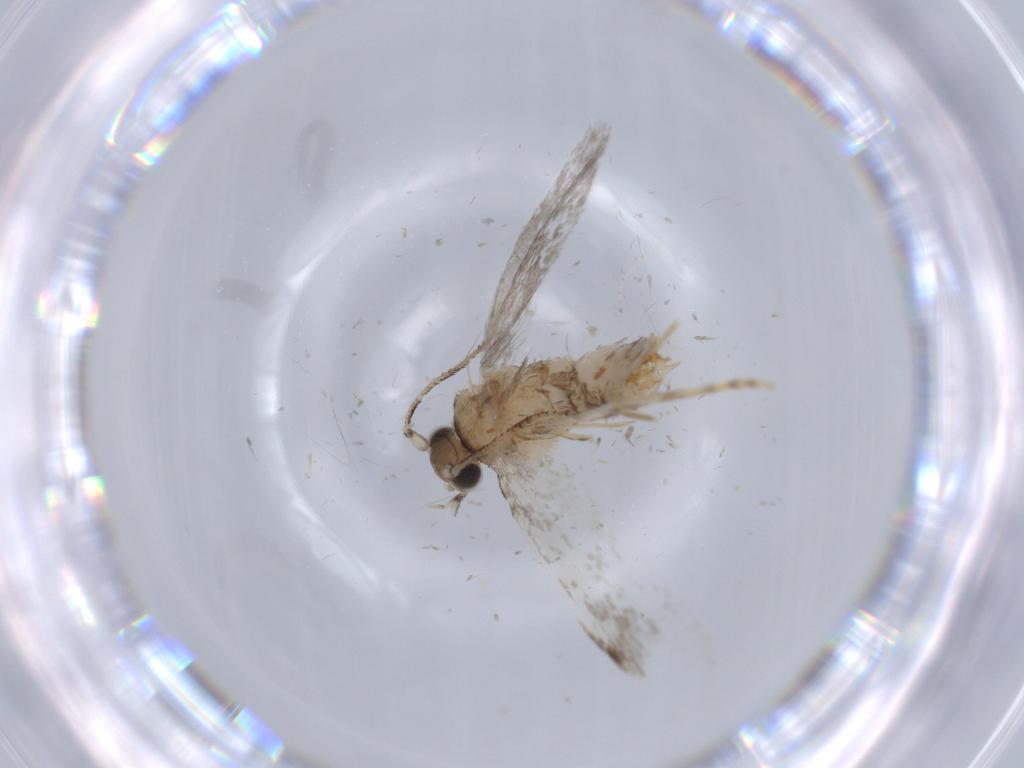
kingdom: Animalia
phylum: Arthropoda
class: Insecta
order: Lepidoptera
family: Tineidae
